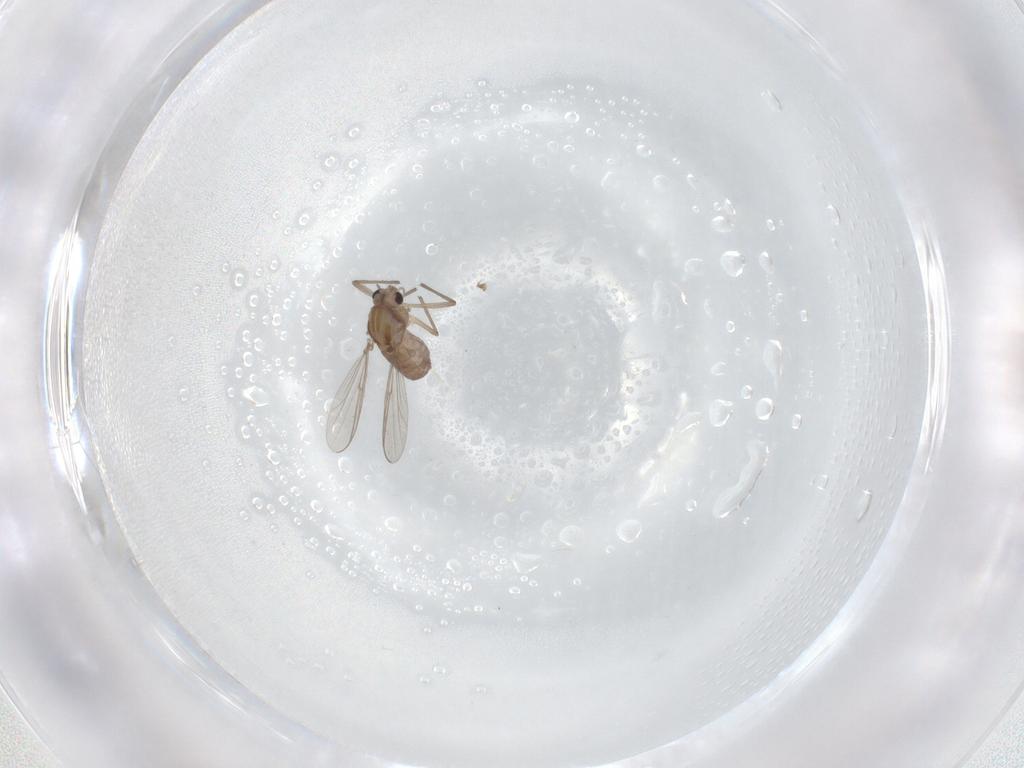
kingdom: Animalia
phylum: Arthropoda
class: Insecta
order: Diptera
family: Chironomidae
